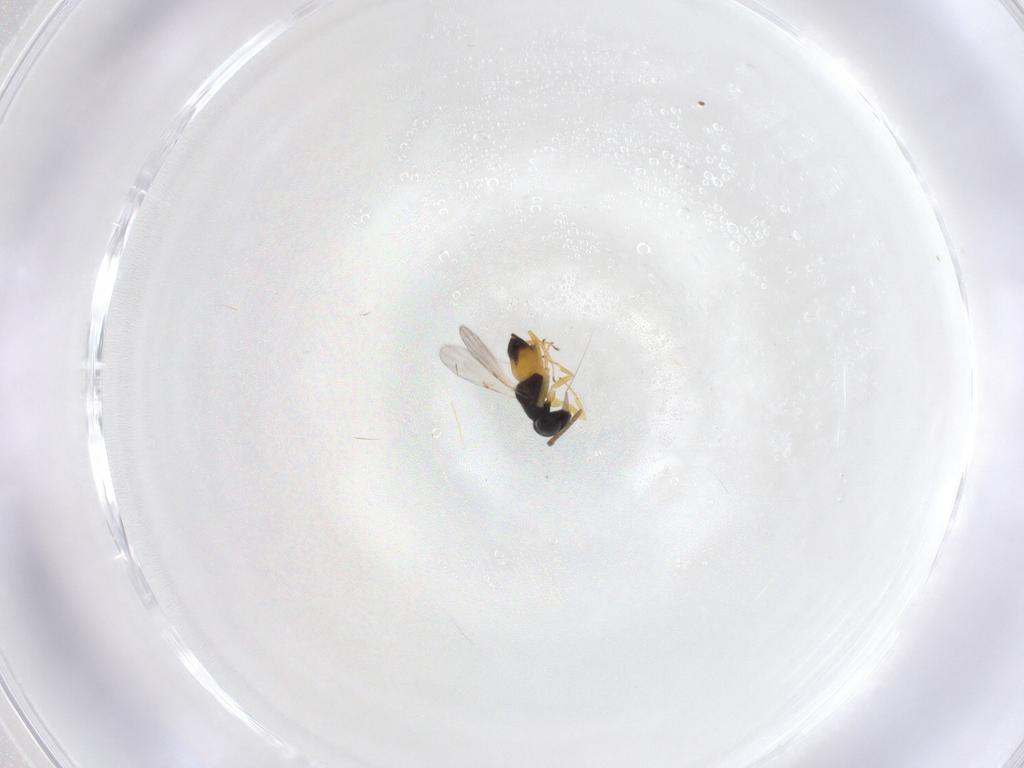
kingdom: Animalia
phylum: Arthropoda
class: Insecta
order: Hymenoptera
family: Encyrtidae
